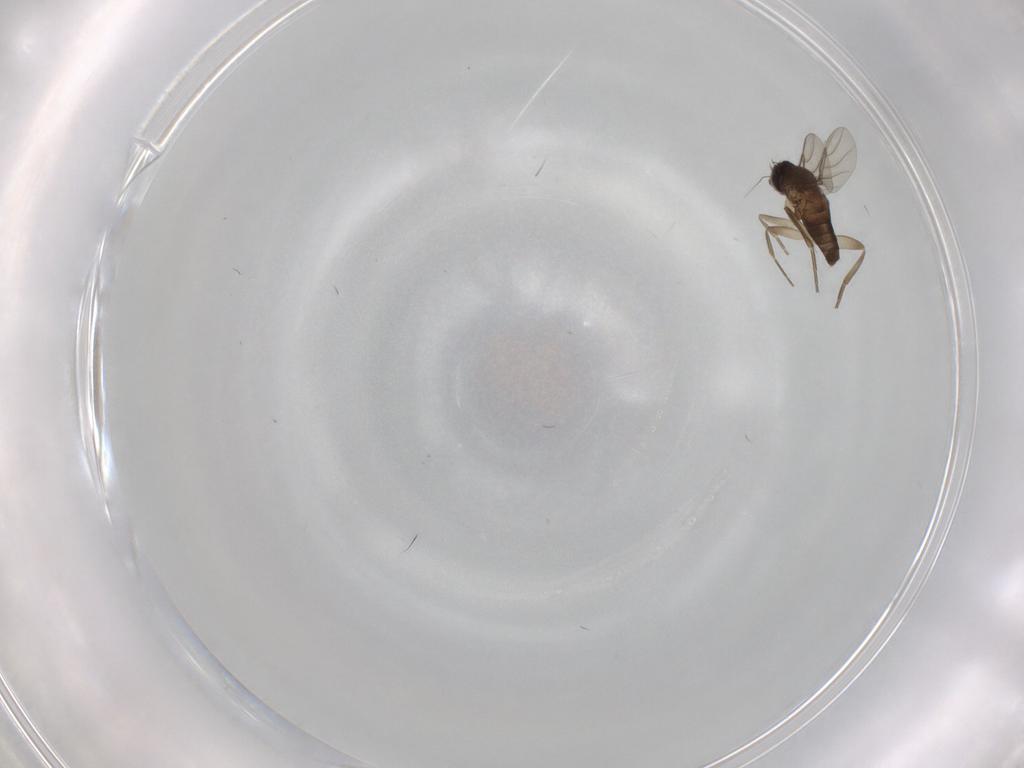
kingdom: Animalia
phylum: Arthropoda
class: Insecta
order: Diptera
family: Phoridae
